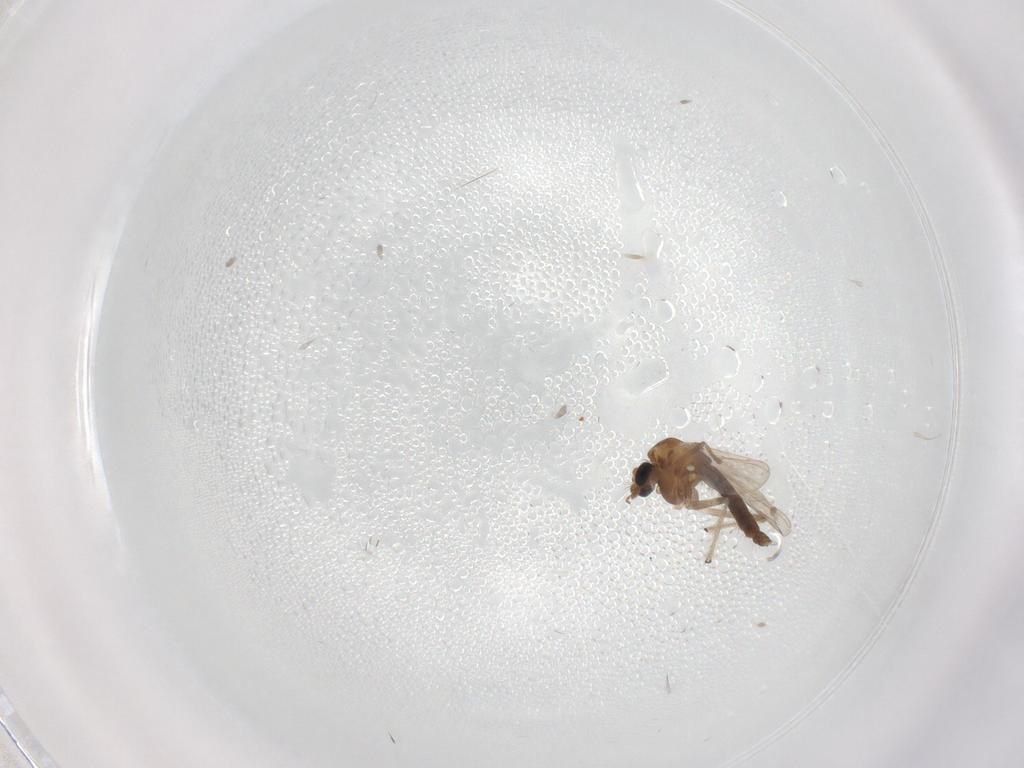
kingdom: Animalia
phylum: Arthropoda
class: Insecta
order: Diptera
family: Chironomidae
